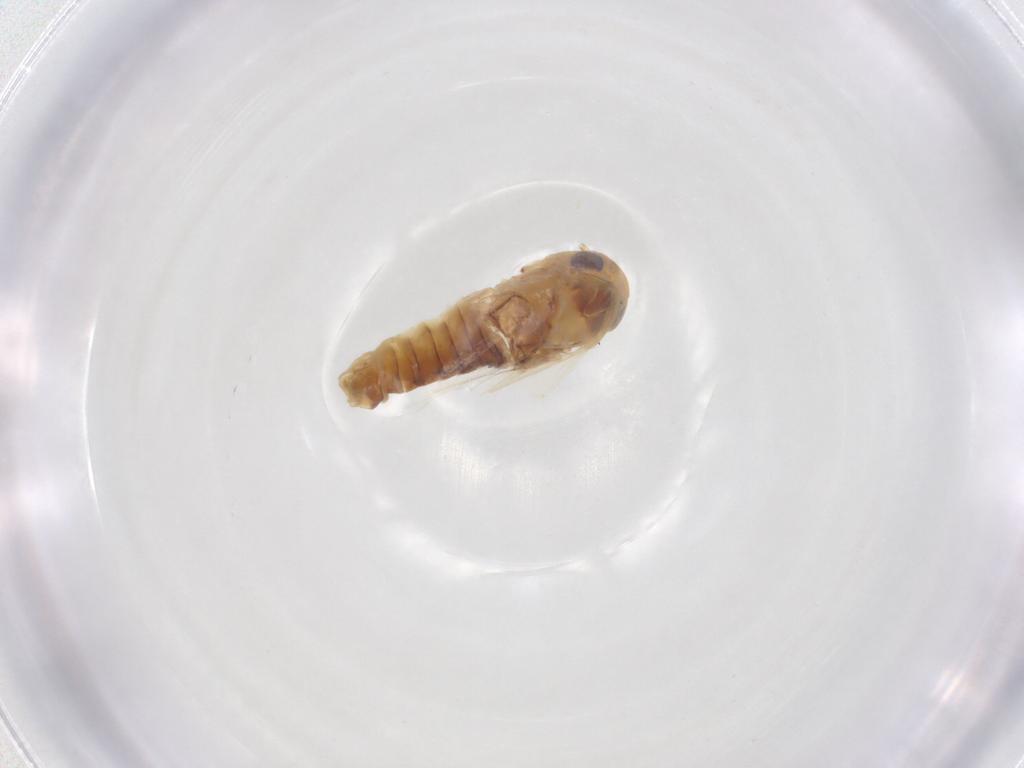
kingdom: Animalia
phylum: Arthropoda
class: Insecta
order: Hemiptera
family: Cicadellidae
